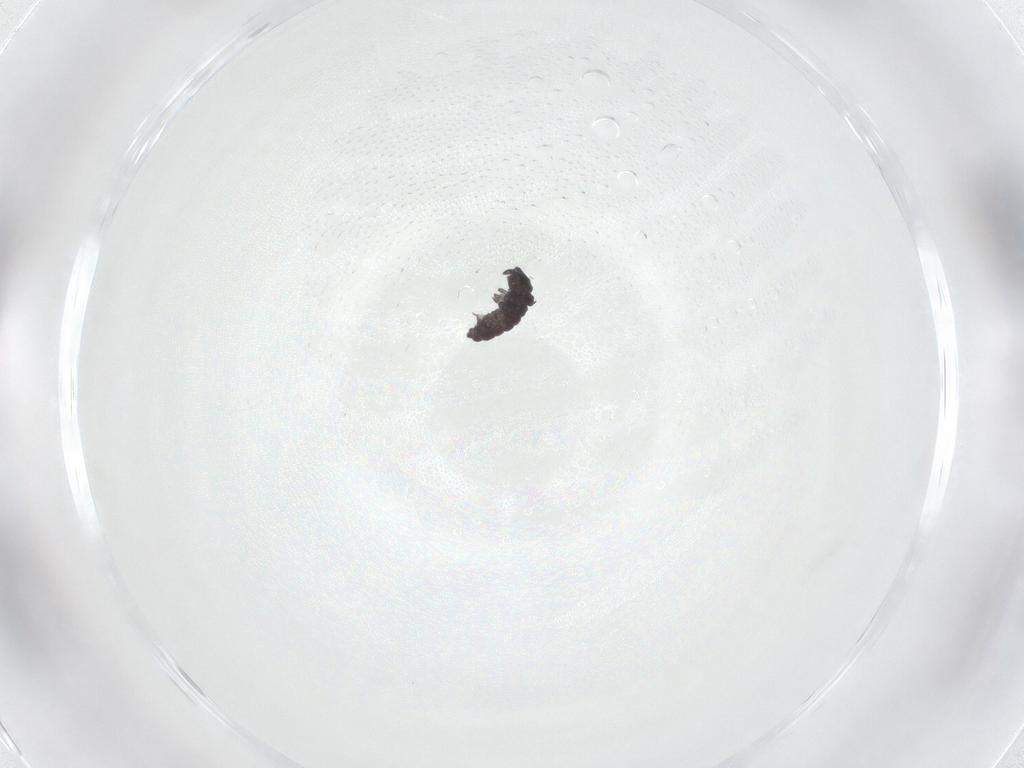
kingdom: Animalia
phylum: Arthropoda
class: Collembola
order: Poduromorpha
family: Hypogastruridae
